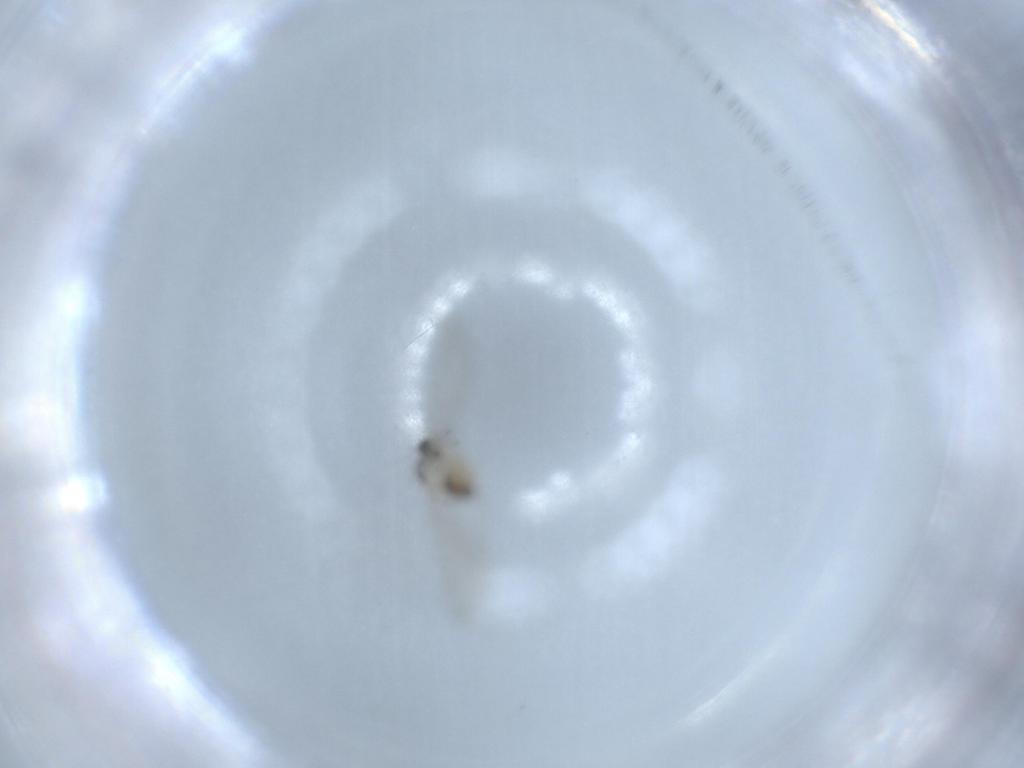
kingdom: Animalia
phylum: Arthropoda
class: Insecta
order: Diptera
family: Cecidomyiidae
